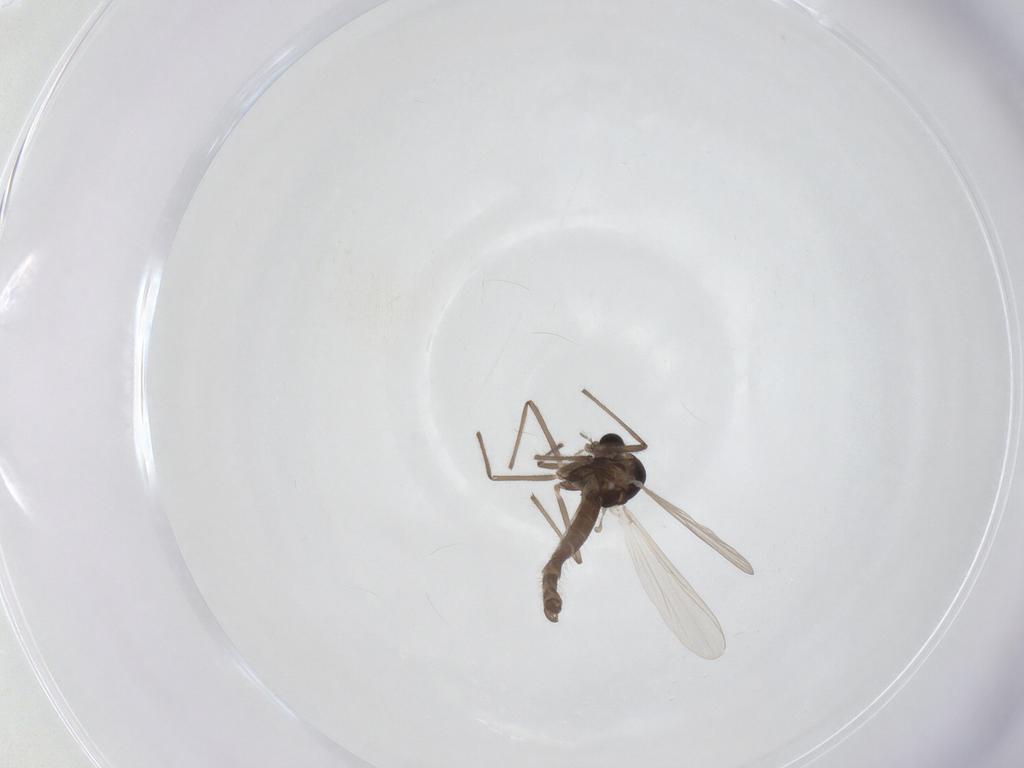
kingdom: Animalia
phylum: Arthropoda
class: Insecta
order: Diptera
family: Chironomidae
